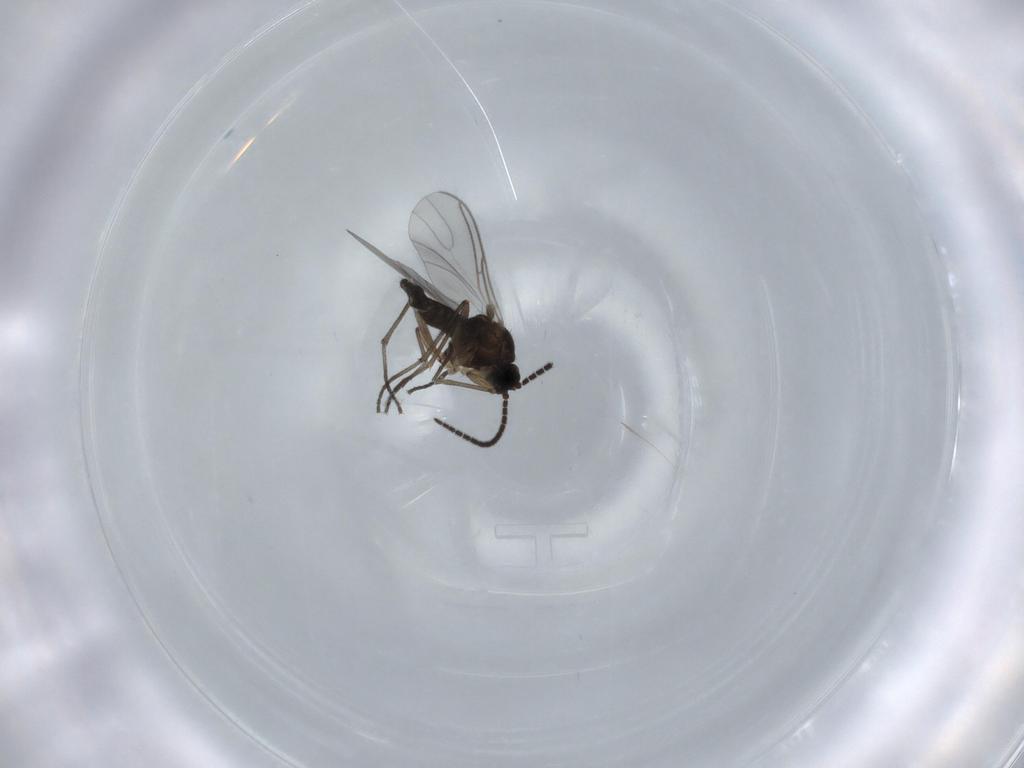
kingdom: Animalia
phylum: Arthropoda
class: Insecta
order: Diptera
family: Sciaridae
